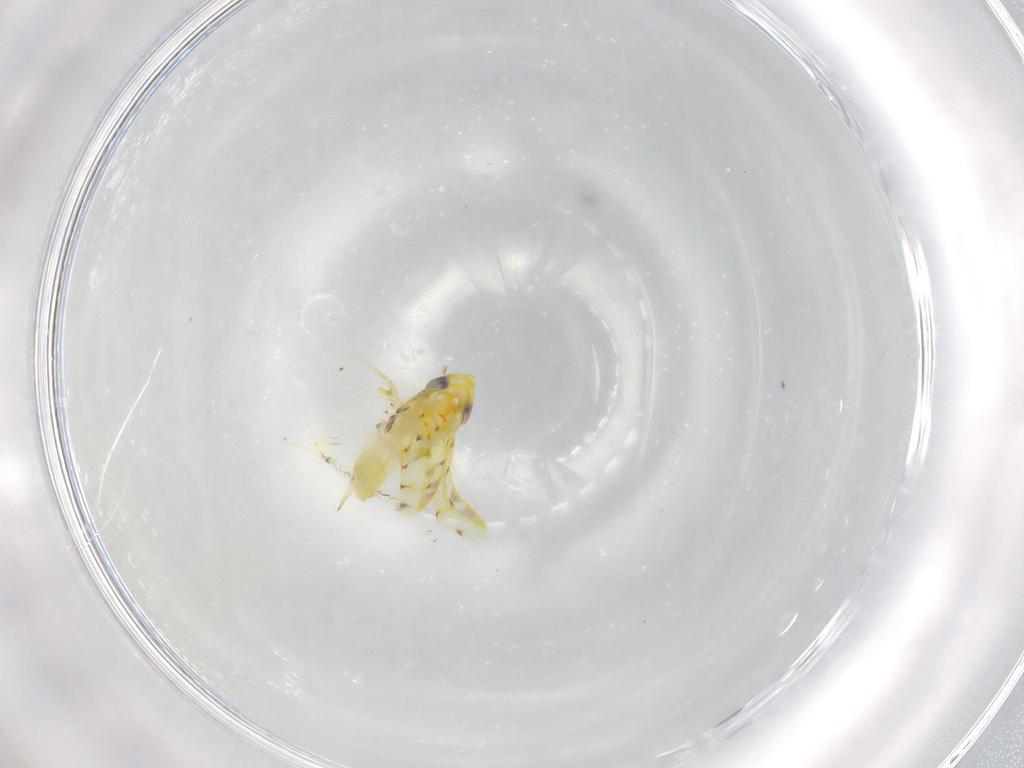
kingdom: Animalia
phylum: Arthropoda
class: Insecta
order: Hemiptera
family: Cicadellidae
